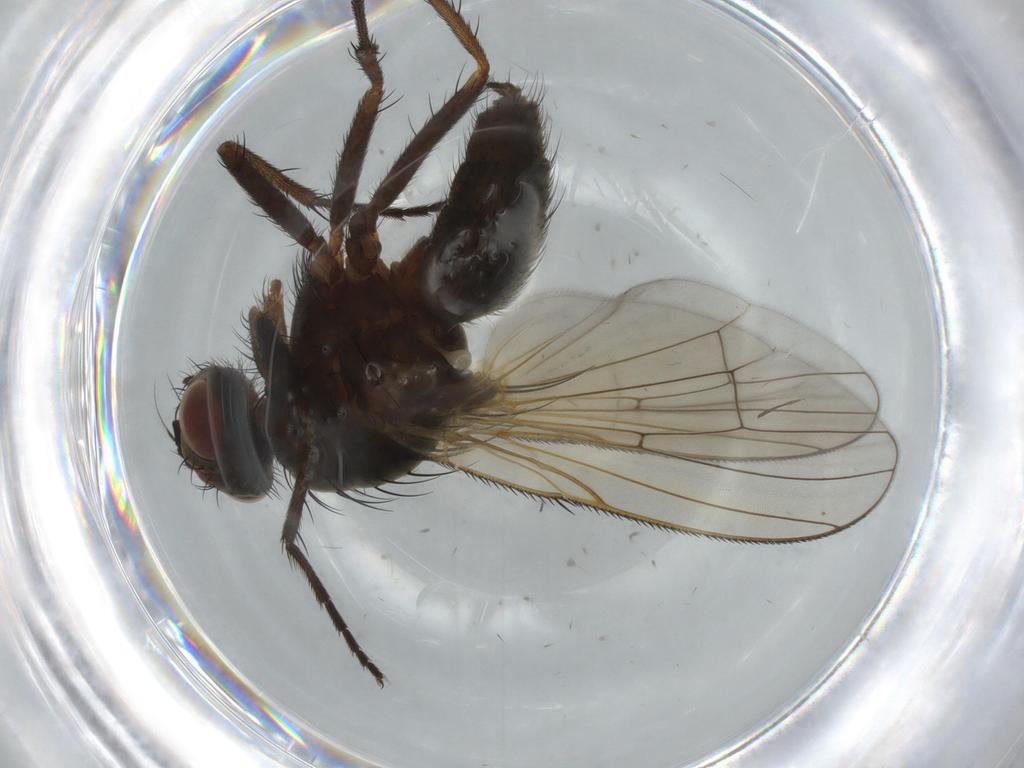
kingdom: Animalia
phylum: Arthropoda
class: Insecta
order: Diptera
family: Anthomyiidae
